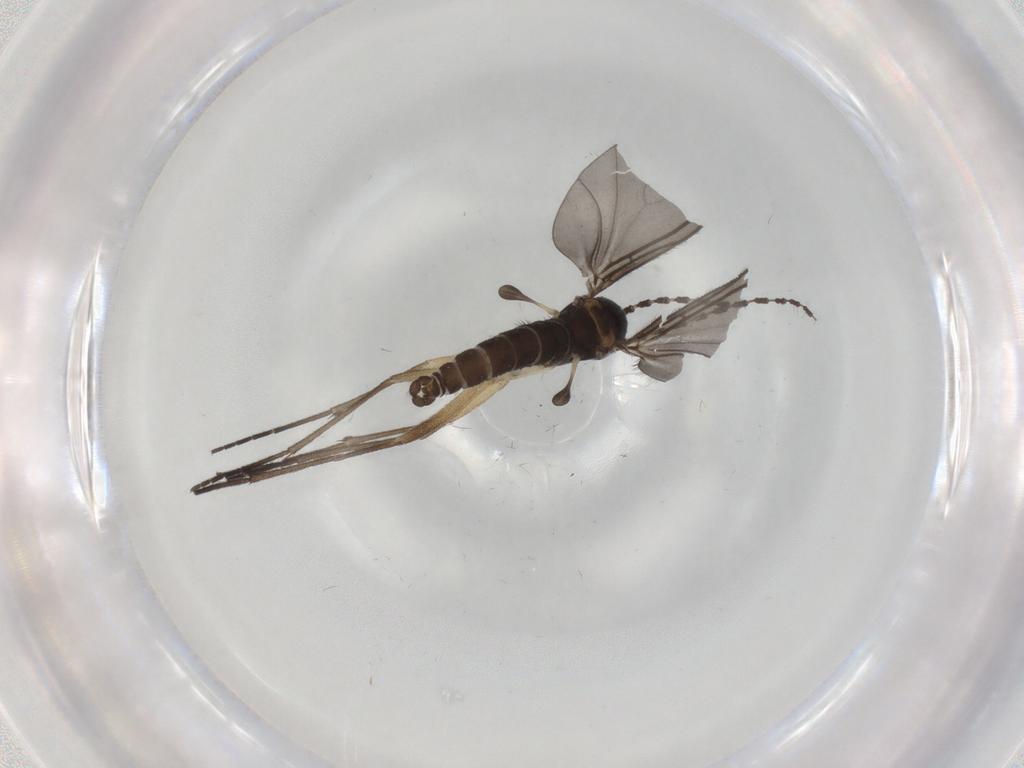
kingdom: Animalia
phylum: Arthropoda
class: Insecta
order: Diptera
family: Sciaridae
